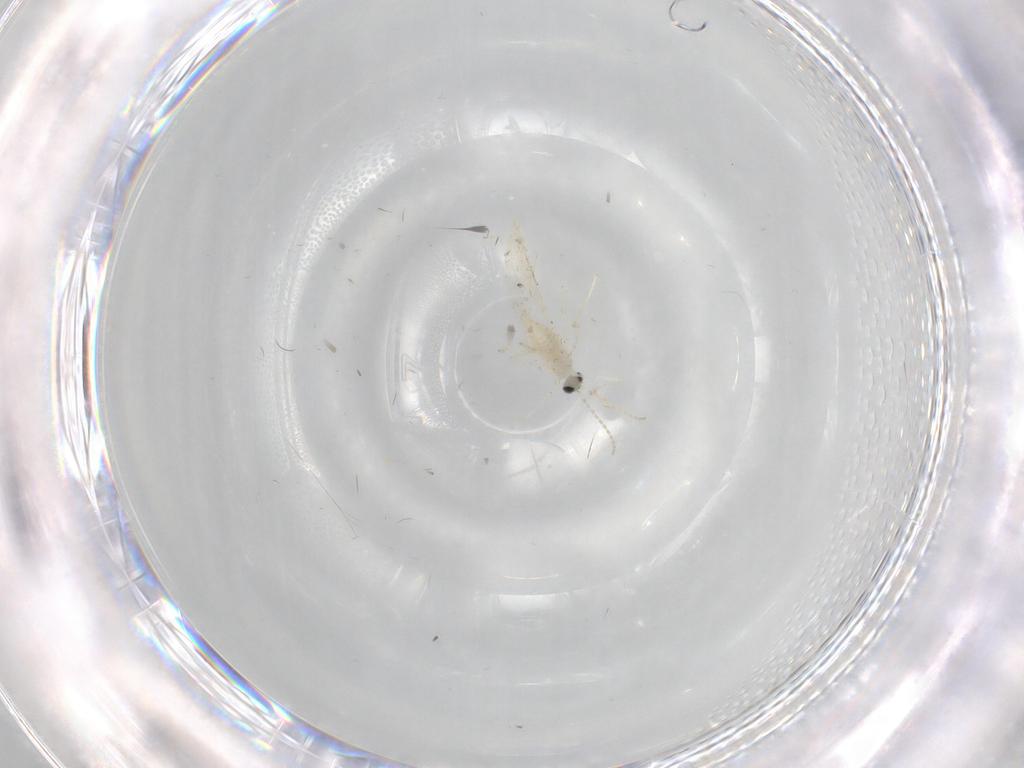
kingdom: Animalia
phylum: Arthropoda
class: Insecta
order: Diptera
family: Cecidomyiidae
